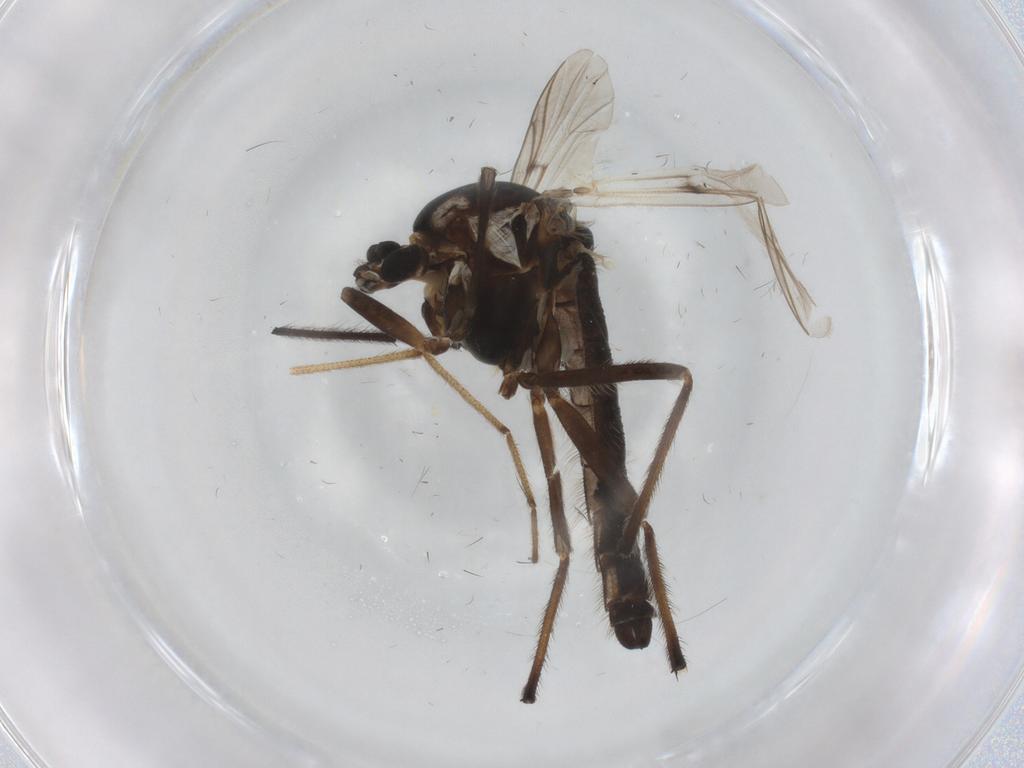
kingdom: Animalia
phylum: Arthropoda
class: Insecta
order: Diptera
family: Chironomidae
